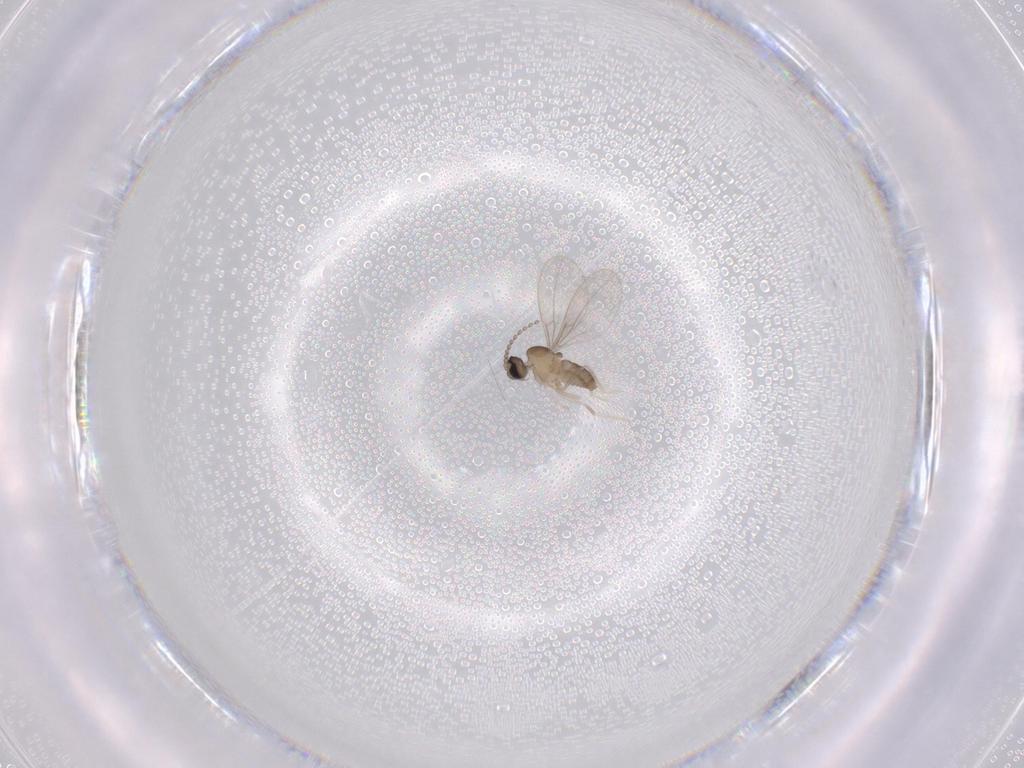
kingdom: Animalia
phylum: Arthropoda
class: Insecta
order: Diptera
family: Cecidomyiidae
